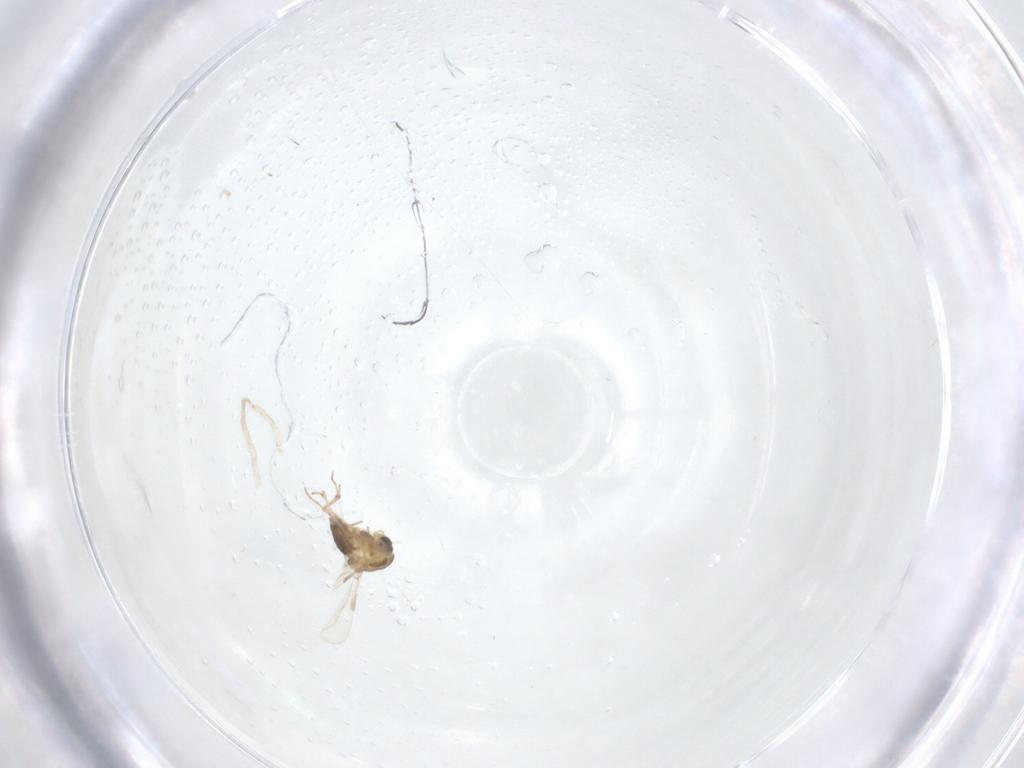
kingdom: Animalia
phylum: Arthropoda
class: Insecta
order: Diptera
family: Chironomidae
